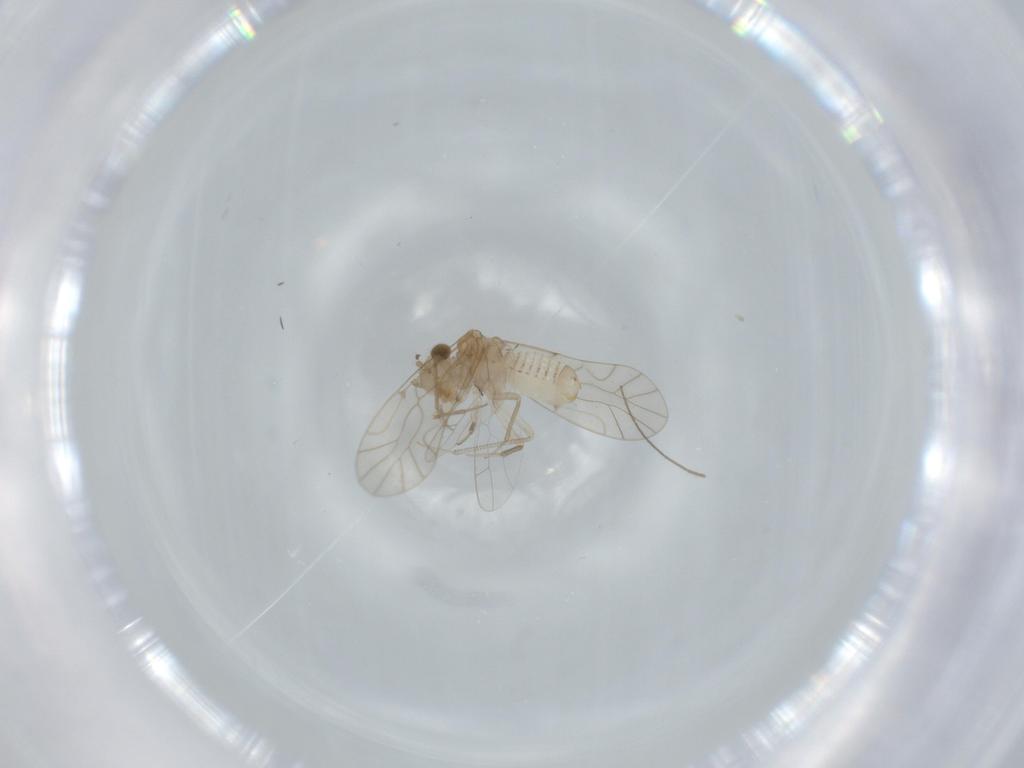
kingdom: Animalia
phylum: Arthropoda
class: Insecta
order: Psocodea
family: Lachesillidae
